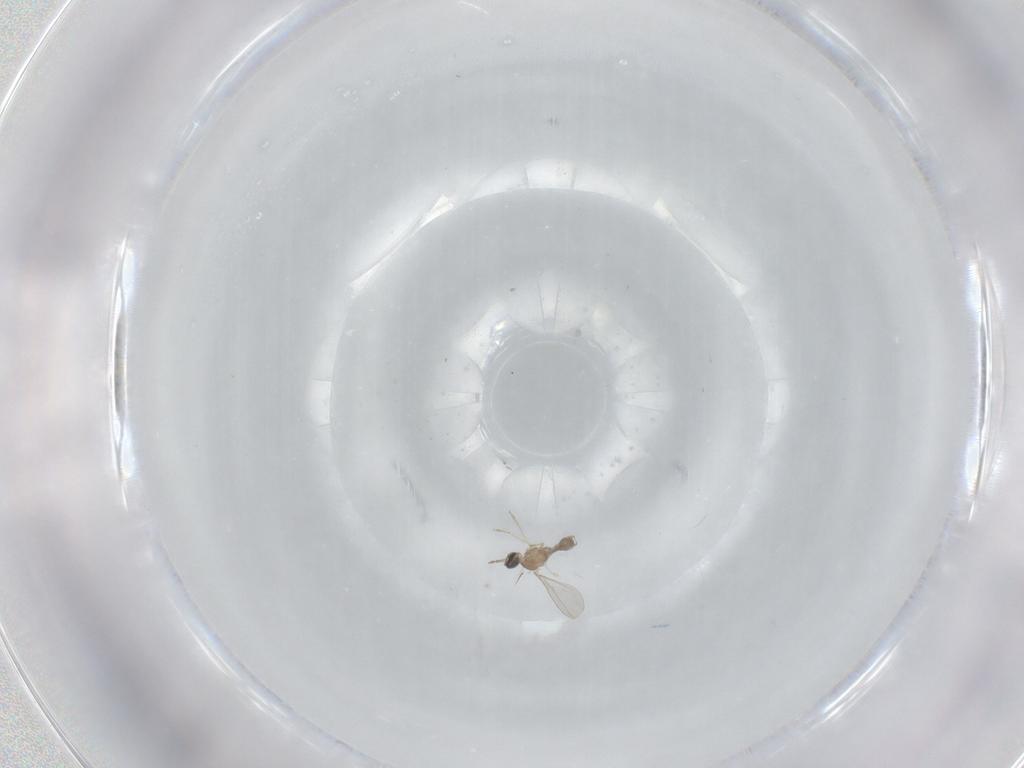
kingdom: Animalia
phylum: Arthropoda
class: Insecta
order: Diptera
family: Cecidomyiidae
